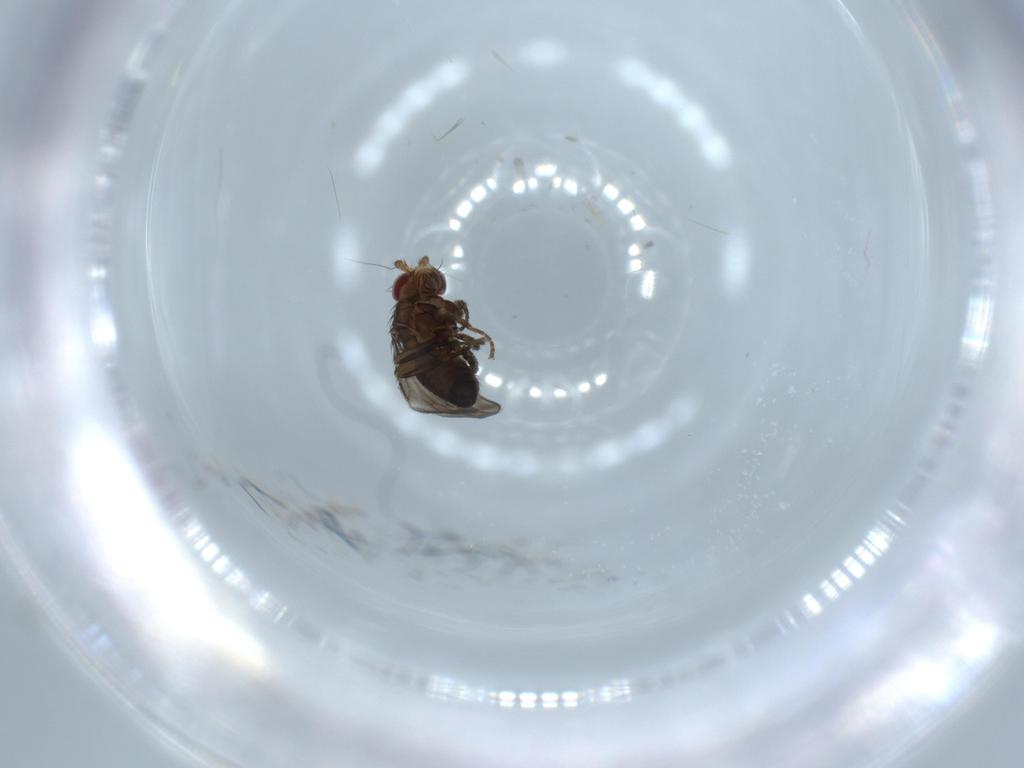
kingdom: Animalia
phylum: Arthropoda
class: Insecta
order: Diptera
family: Sphaeroceridae
